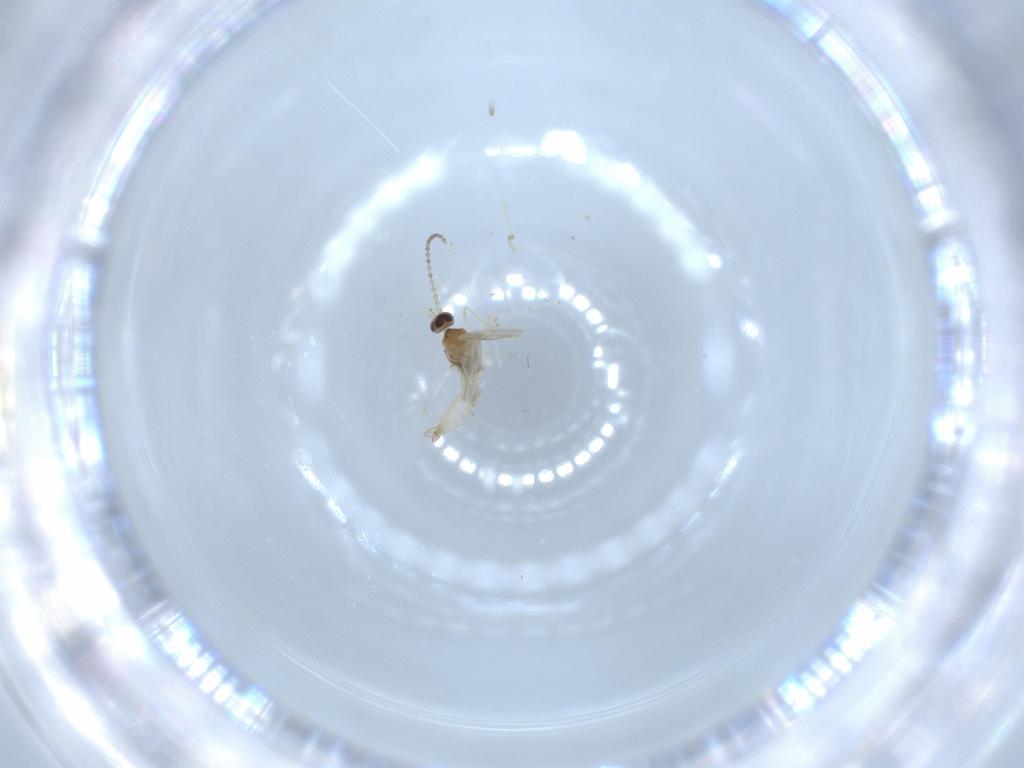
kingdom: Animalia
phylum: Arthropoda
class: Insecta
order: Diptera
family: Cecidomyiidae
